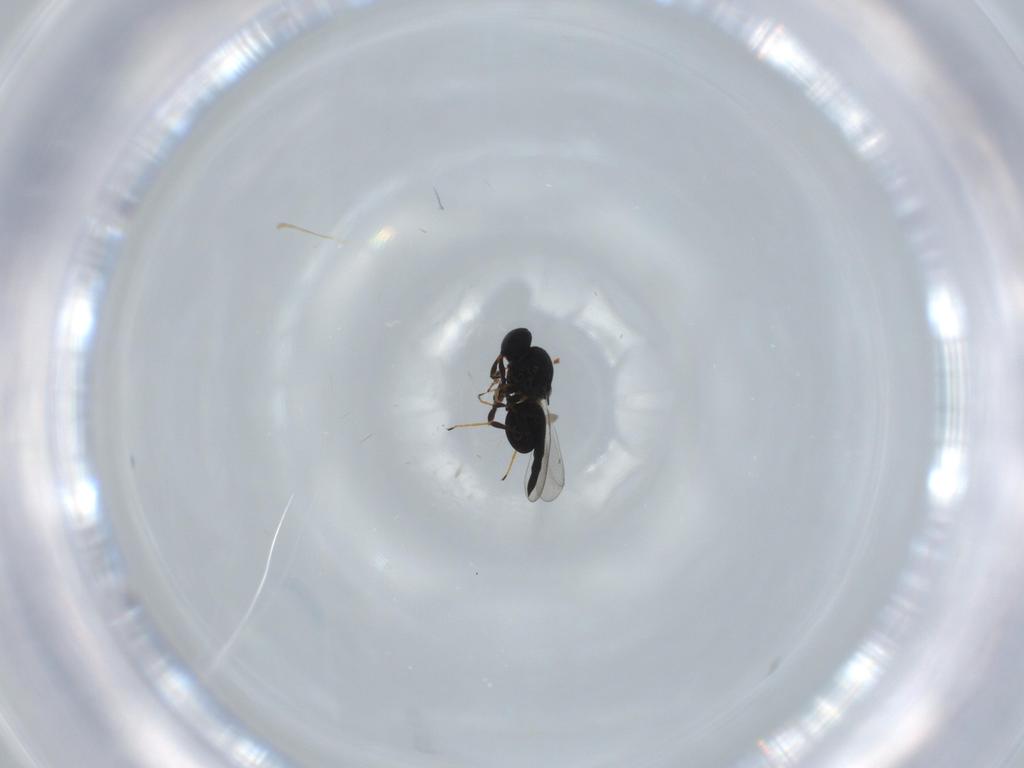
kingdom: Animalia
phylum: Arthropoda
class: Insecta
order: Hymenoptera
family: Platygastridae
